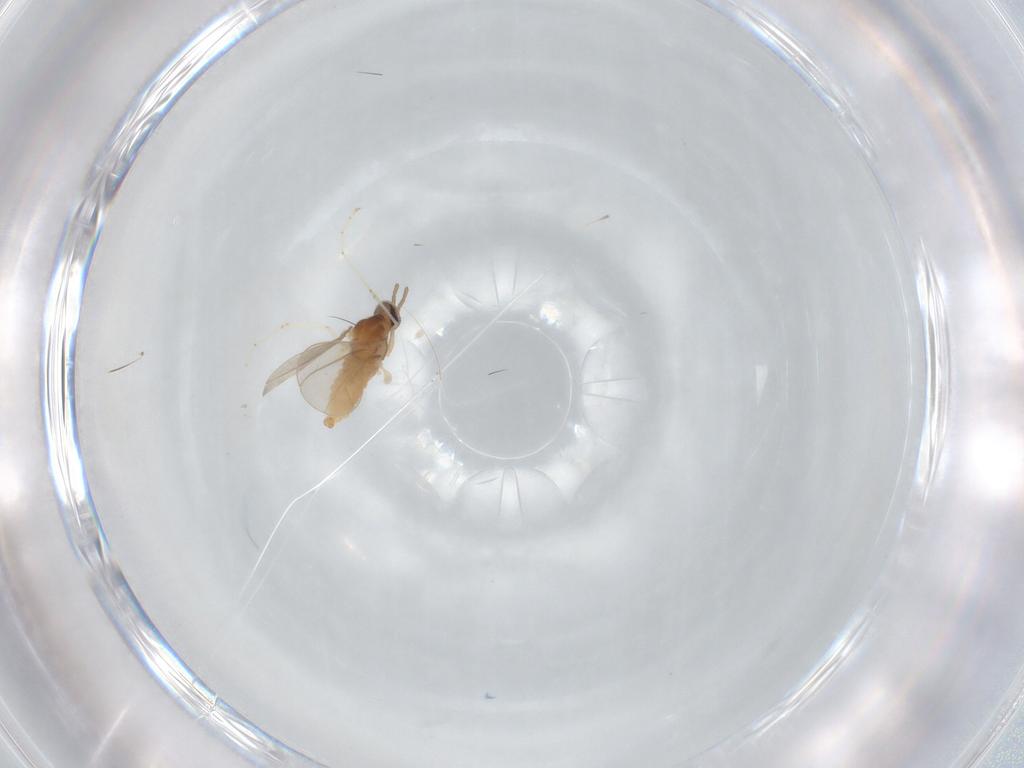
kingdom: Animalia
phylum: Arthropoda
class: Insecta
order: Diptera
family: Cecidomyiidae
